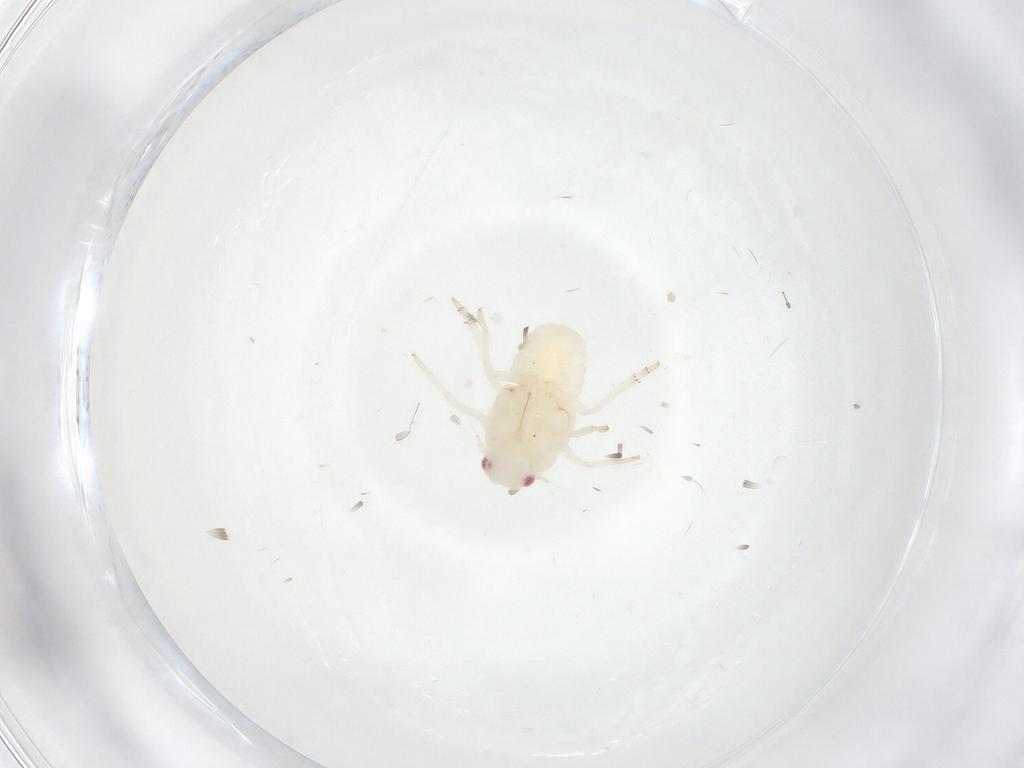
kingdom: Animalia
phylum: Arthropoda
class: Insecta
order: Hemiptera
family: Flatidae
